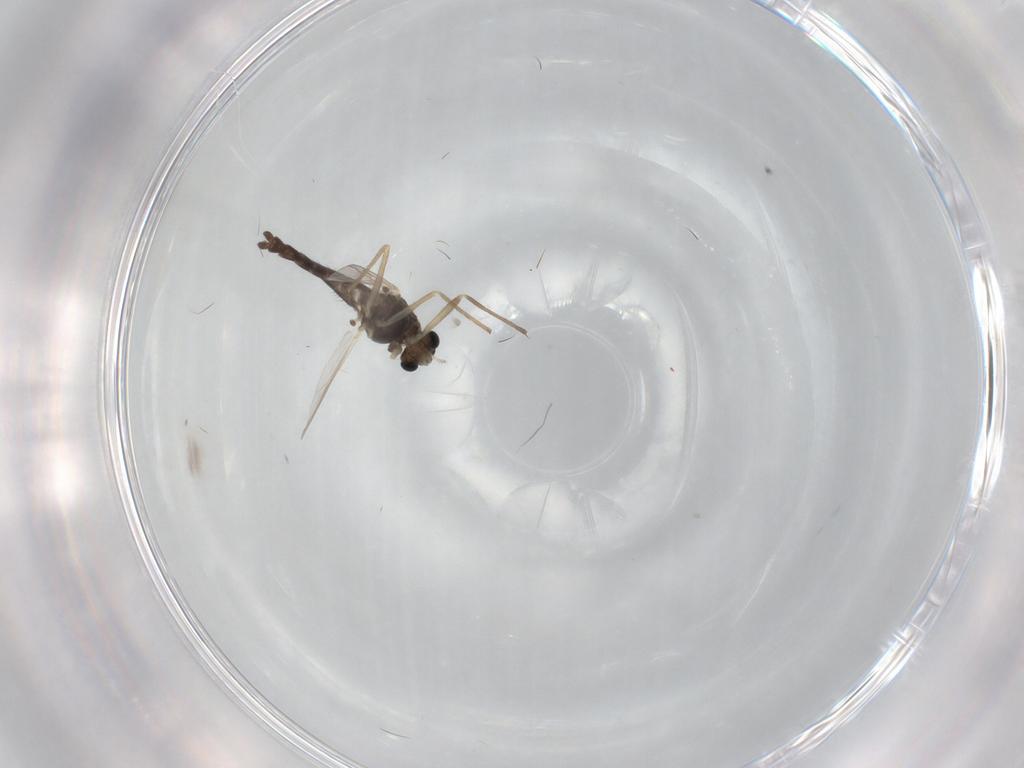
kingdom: Animalia
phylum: Arthropoda
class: Insecta
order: Diptera
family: Chironomidae
